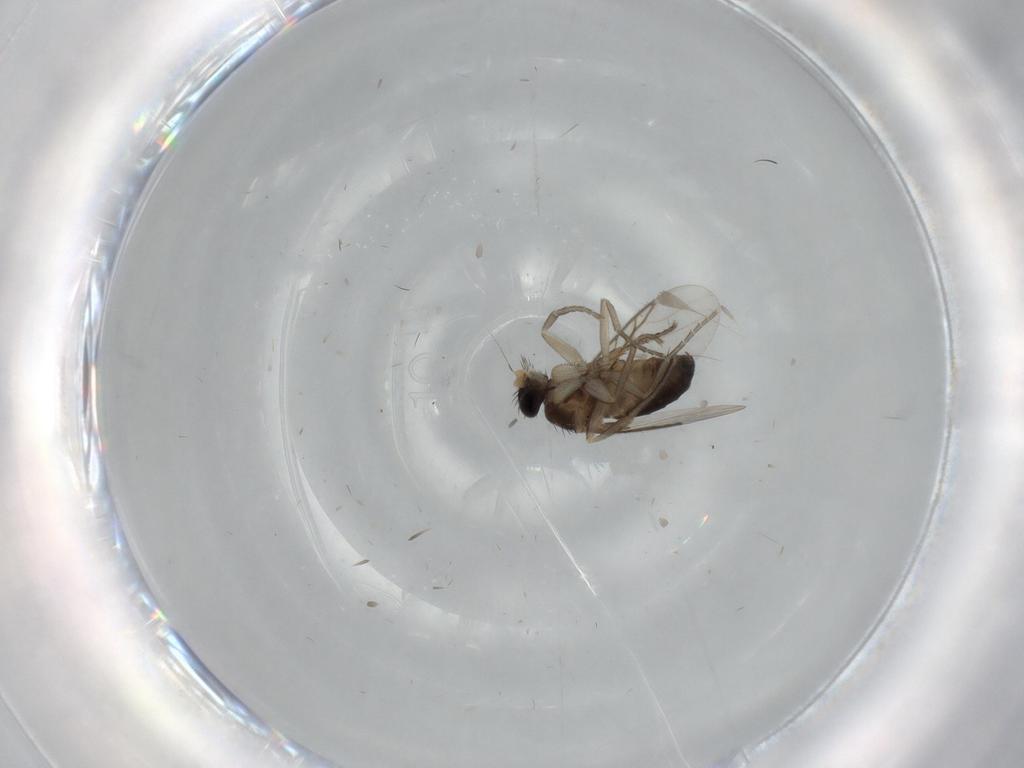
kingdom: Animalia
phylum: Arthropoda
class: Insecta
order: Diptera
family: Phoridae
